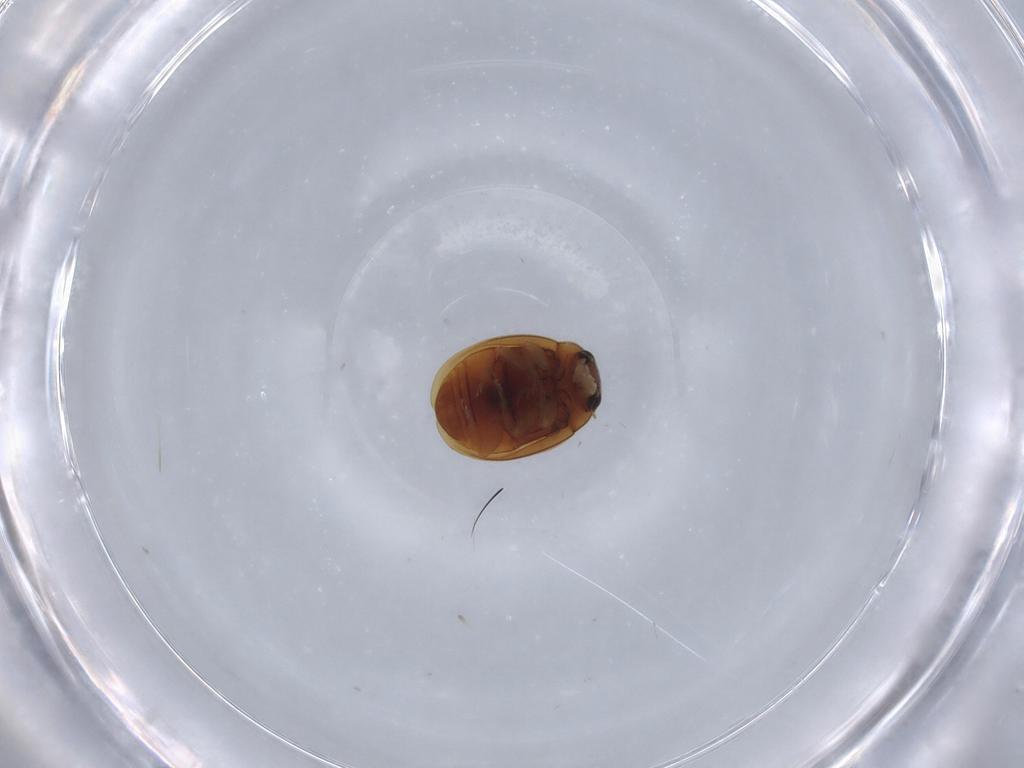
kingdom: Animalia
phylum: Arthropoda
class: Insecta
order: Coleoptera
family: Coccinellidae
